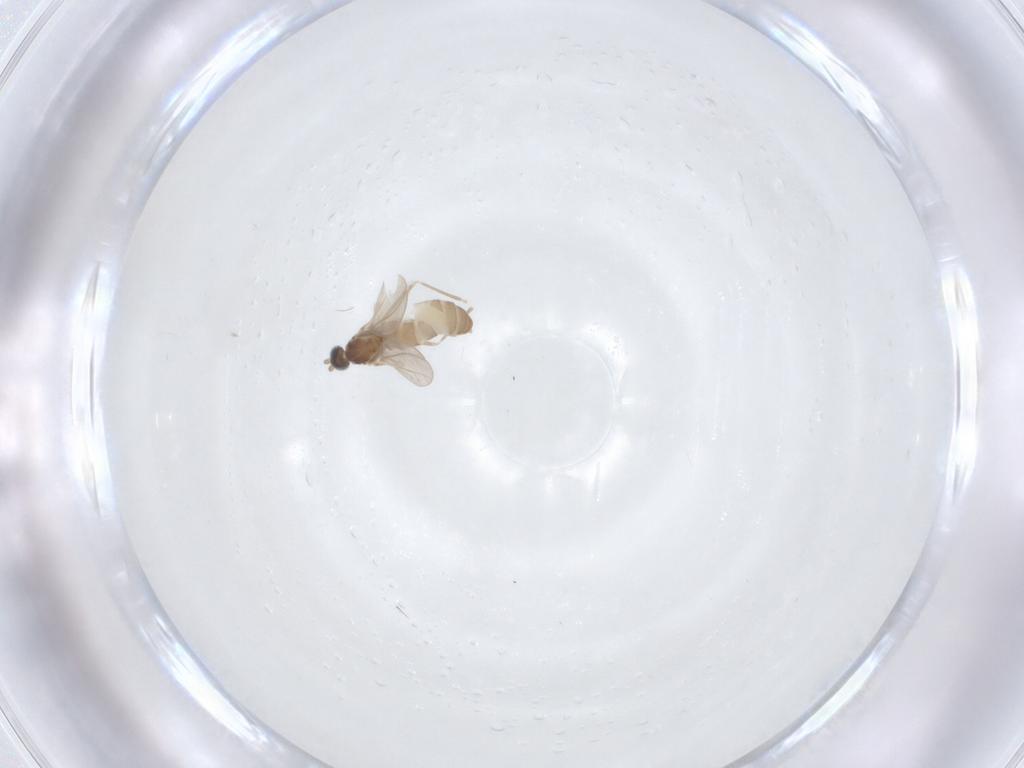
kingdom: Animalia
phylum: Arthropoda
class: Insecta
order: Diptera
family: Cecidomyiidae
